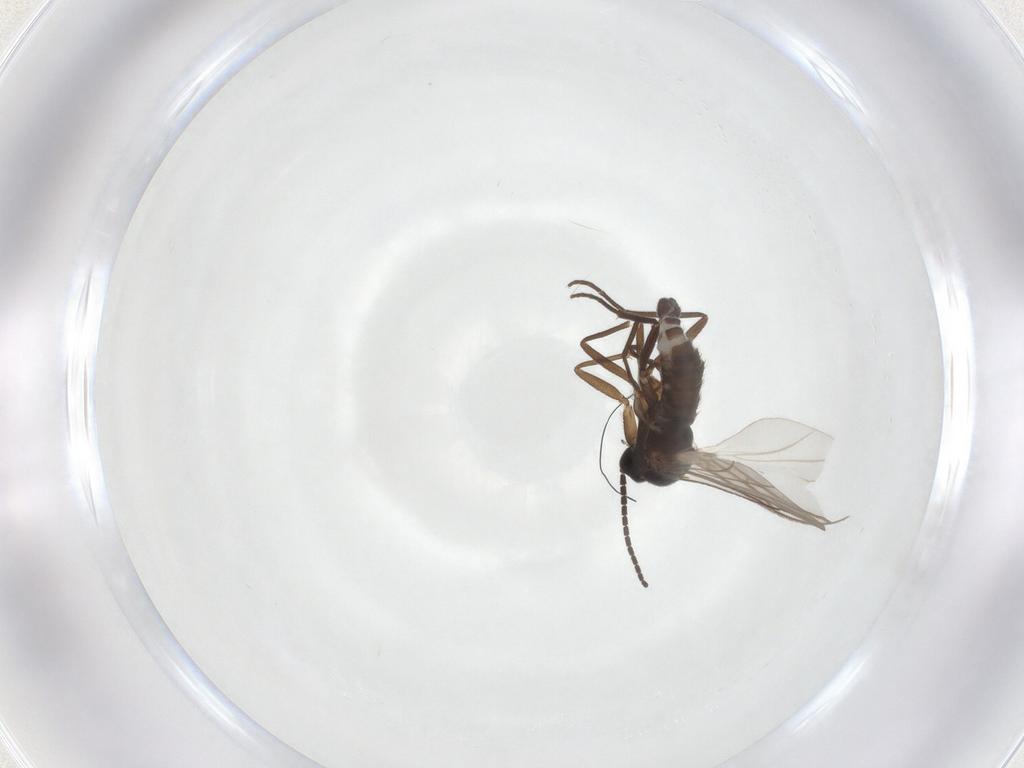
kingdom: Animalia
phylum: Arthropoda
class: Insecta
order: Diptera
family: Sciaridae
